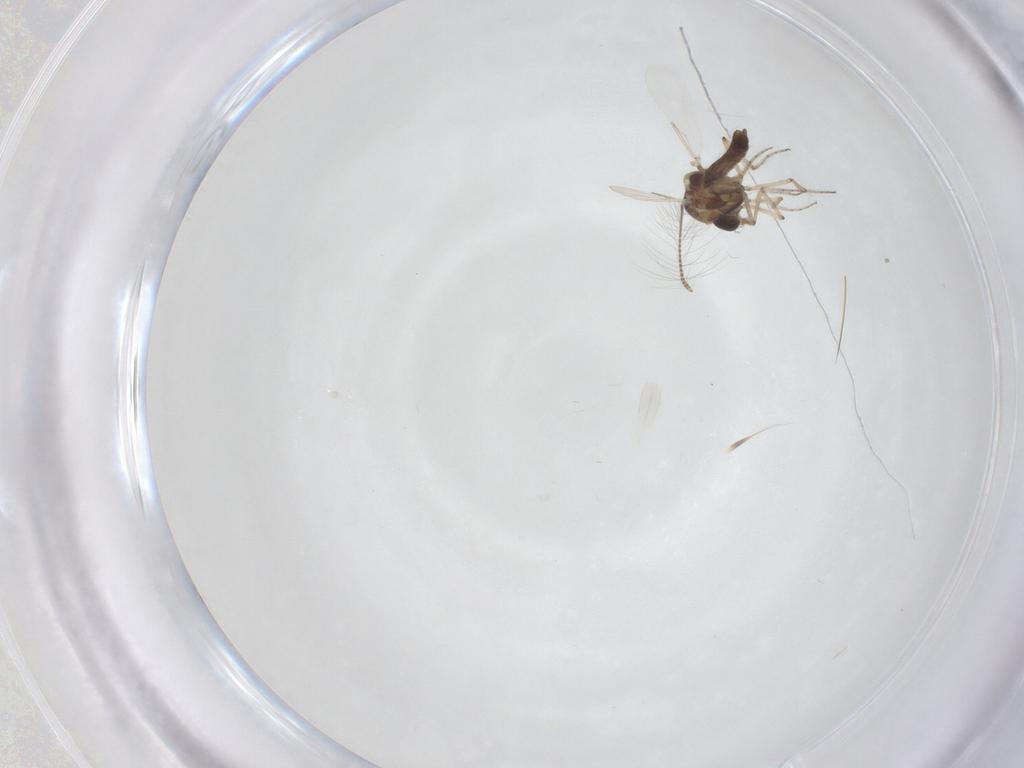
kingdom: Animalia
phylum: Arthropoda
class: Insecta
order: Diptera
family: Ceratopogonidae
